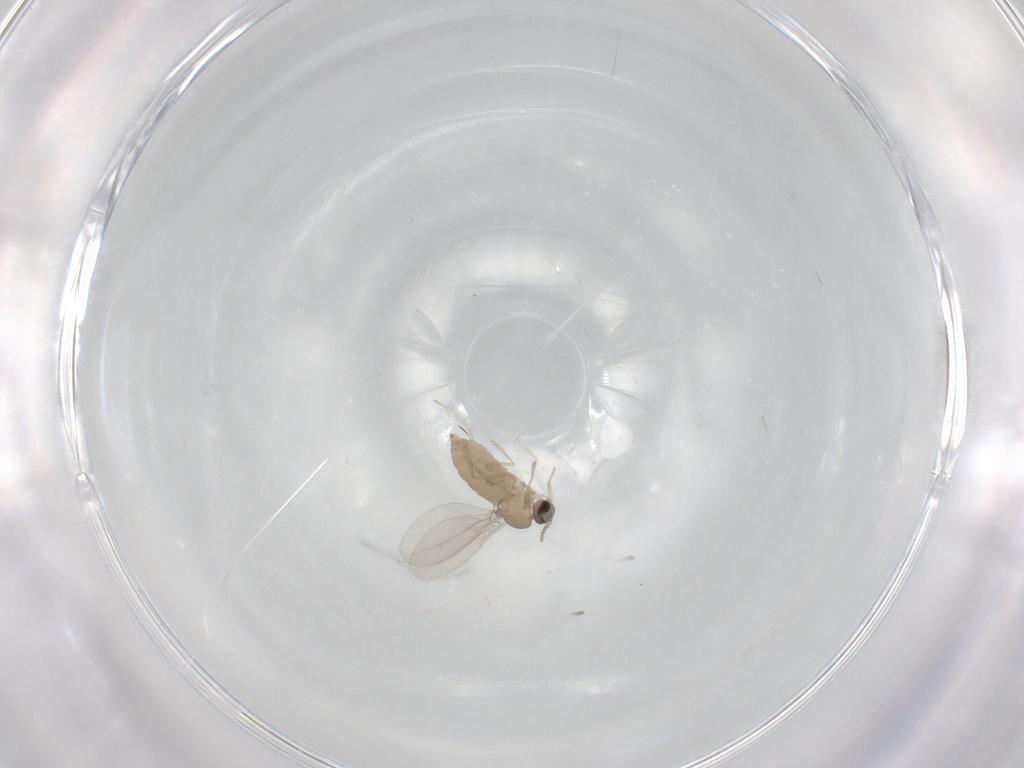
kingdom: Animalia
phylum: Arthropoda
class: Insecta
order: Diptera
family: Cecidomyiidae
